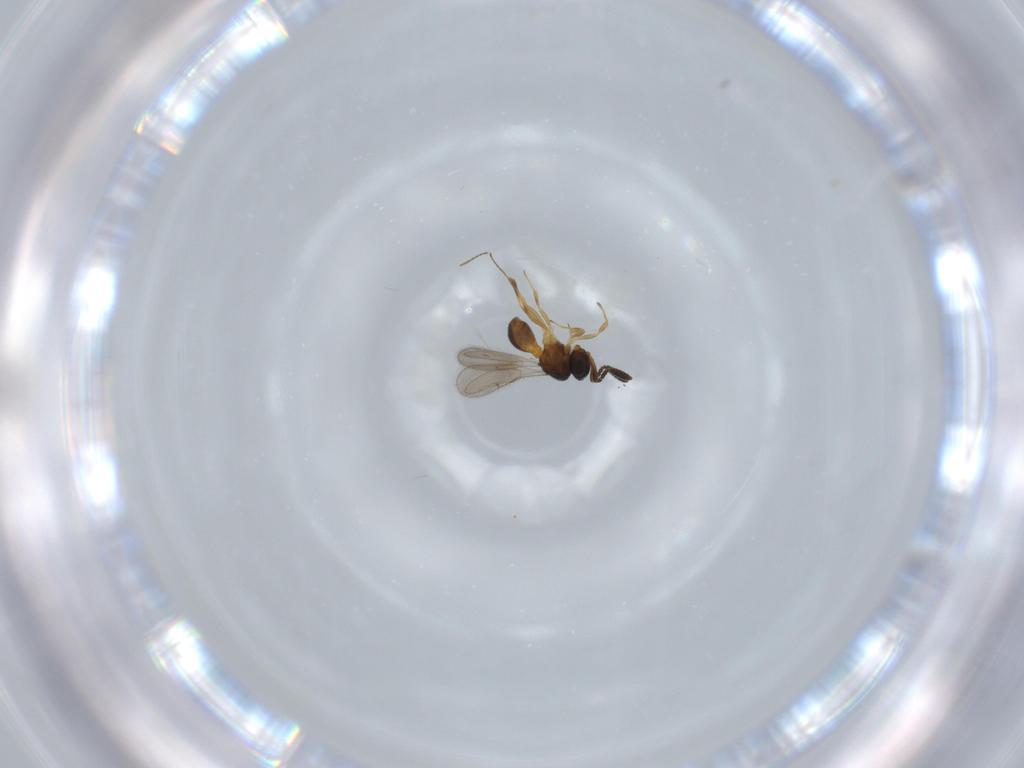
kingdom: Animalia
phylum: Arthropoda
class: Insecta
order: Hymenoptera
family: Scelionidae
